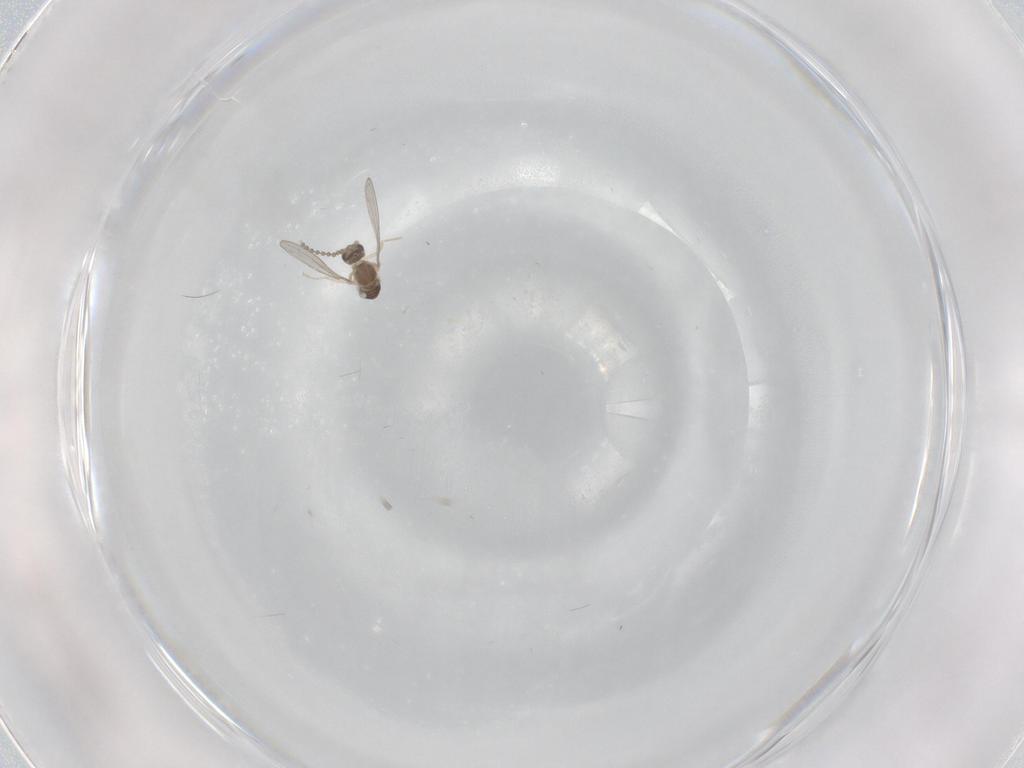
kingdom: Animalia
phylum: Arthropoda
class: Insecta
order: Diptera
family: Cecidomyiidae
